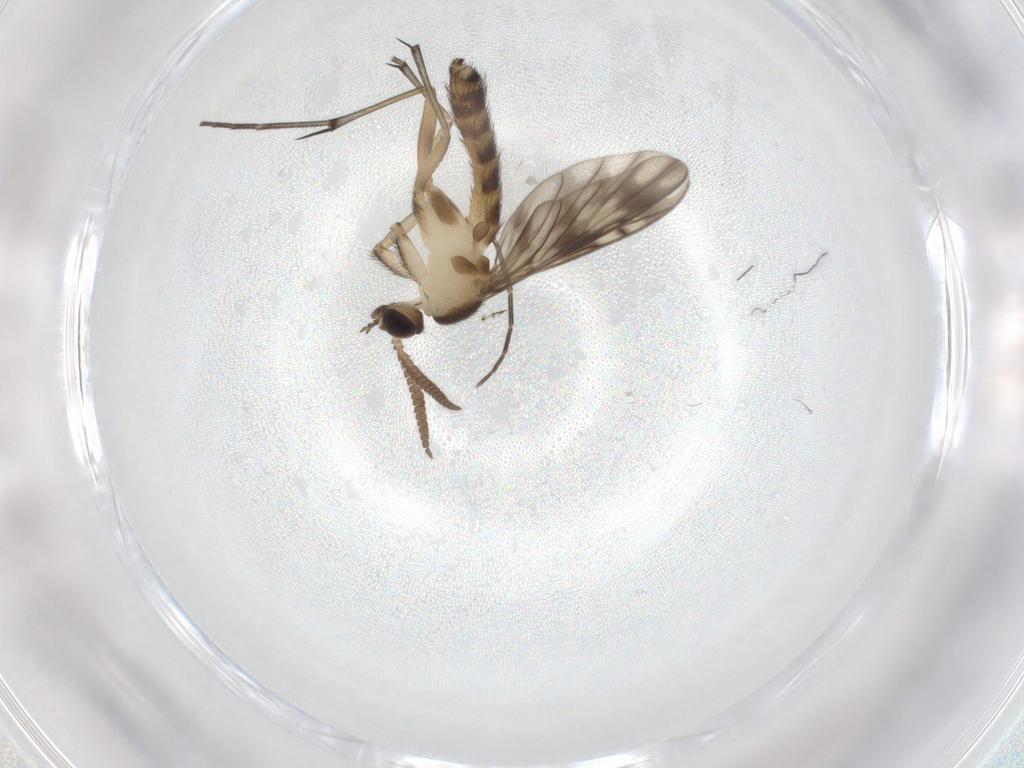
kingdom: Animalia
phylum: Arthropoda
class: Insecta
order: Diptera
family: Keroplatidae
